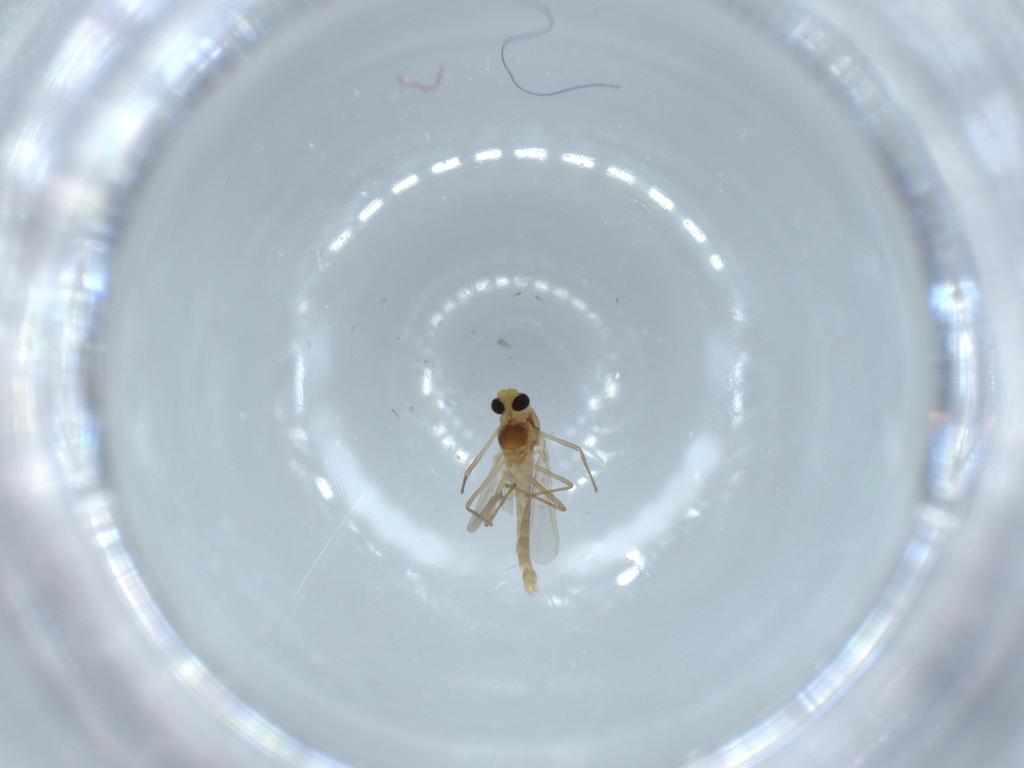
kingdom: Animalia
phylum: Arthropoda
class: Insecta
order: Diptera
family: Chironomidae
